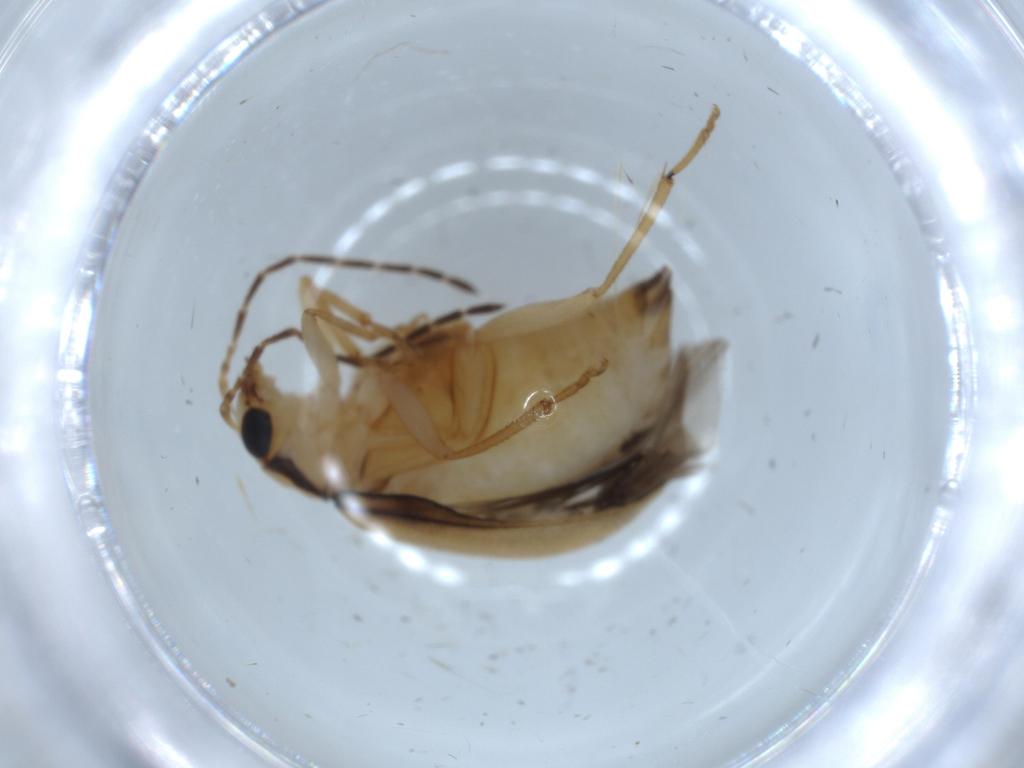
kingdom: Animalia
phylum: Arthropoda
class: Insecta
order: Coleoptera
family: Chrysomelidae
